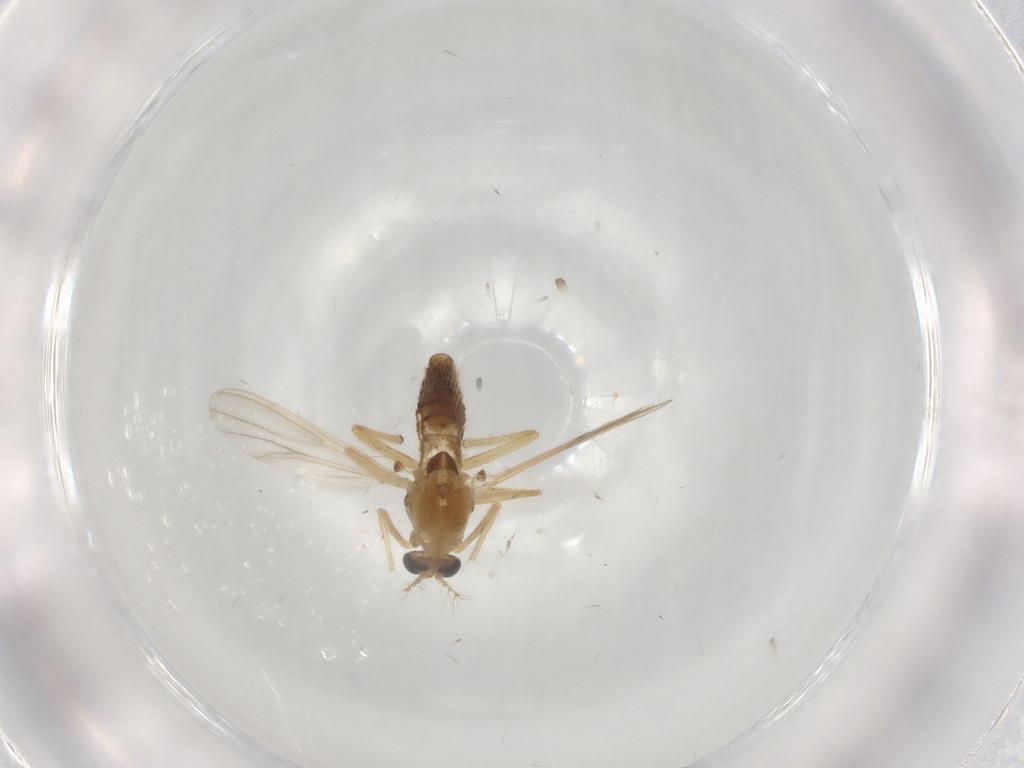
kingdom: Animalia
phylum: Arthropoda
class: Insecta
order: Diptera
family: Chironomidae
